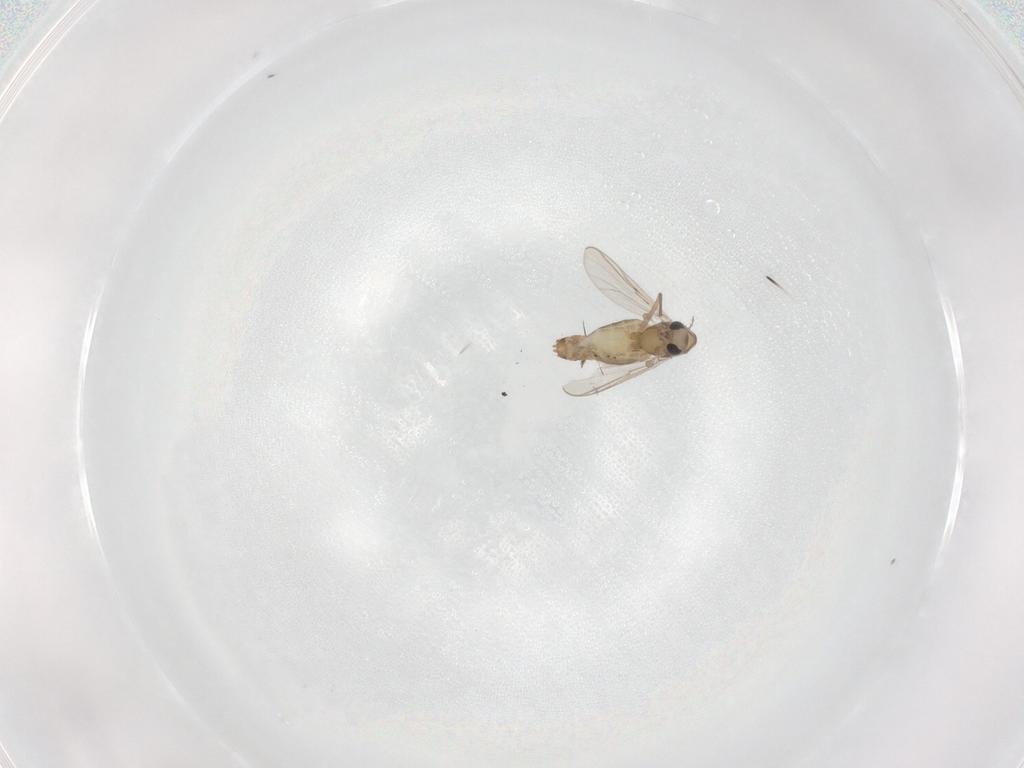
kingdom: Animalia
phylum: Arthropoda
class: Insecta
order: Diptera
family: Chironomidae
